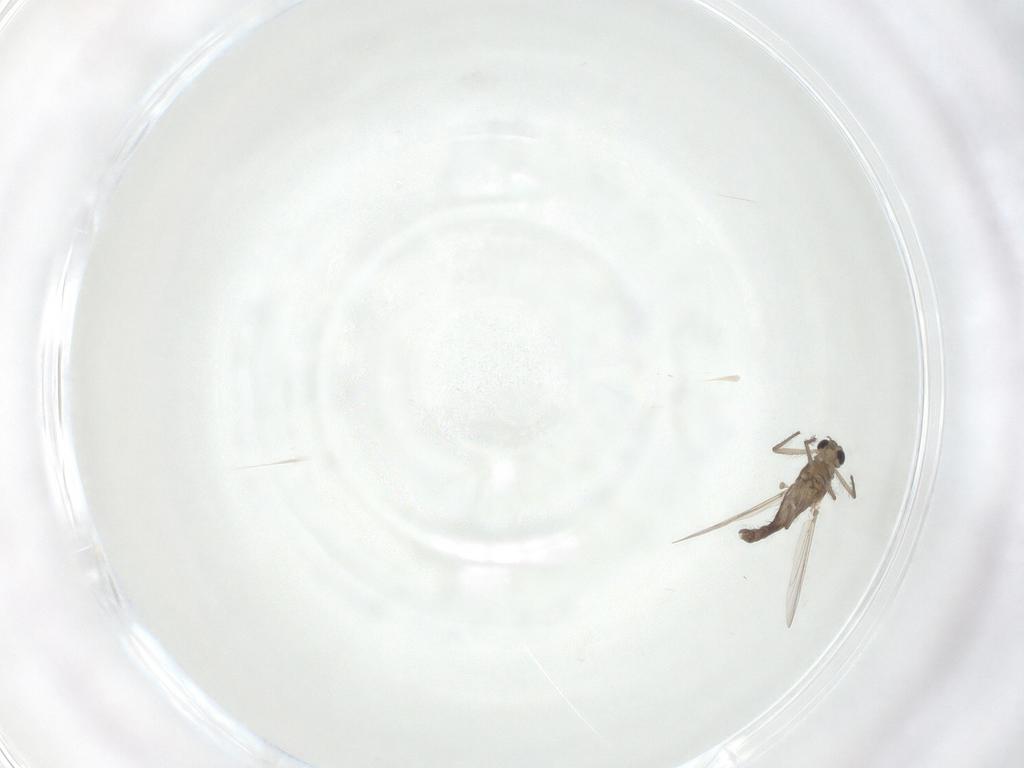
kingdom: Animalia
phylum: Arthropoda
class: Insecta
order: Diptera
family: Chironomidae
